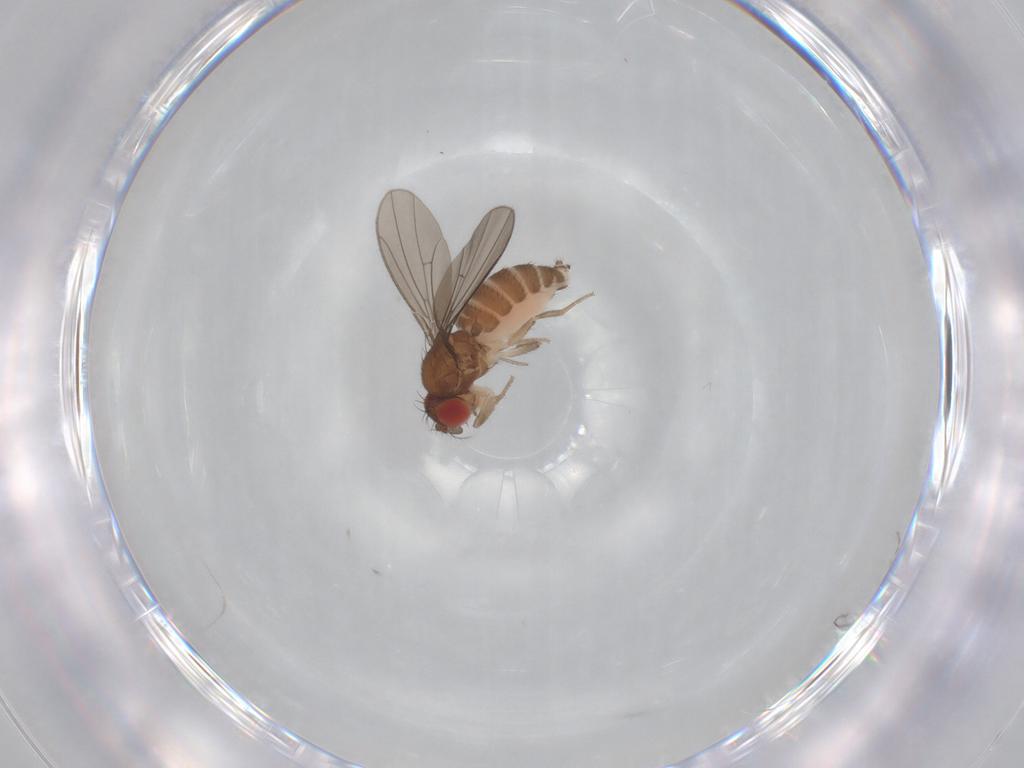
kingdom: Animalia
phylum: Arthropoda
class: Insecta
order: Diptera
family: Drosophilidae
